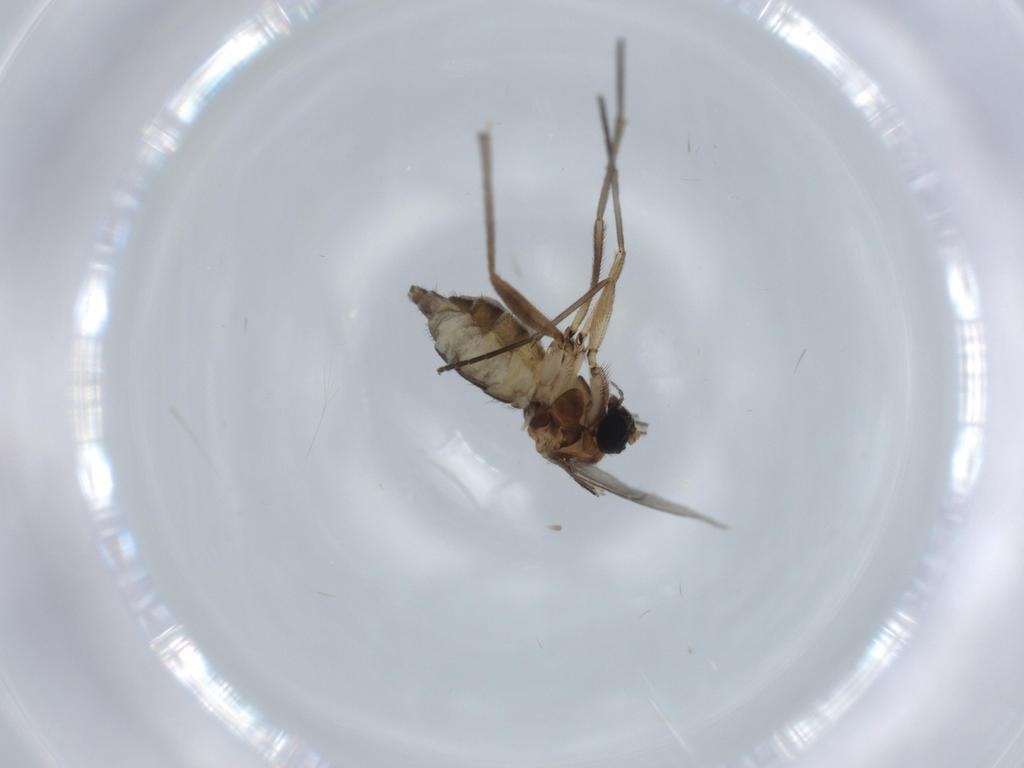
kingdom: Animalia
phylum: Arthropoda
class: Insecta
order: Diptera
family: Sciaridae
